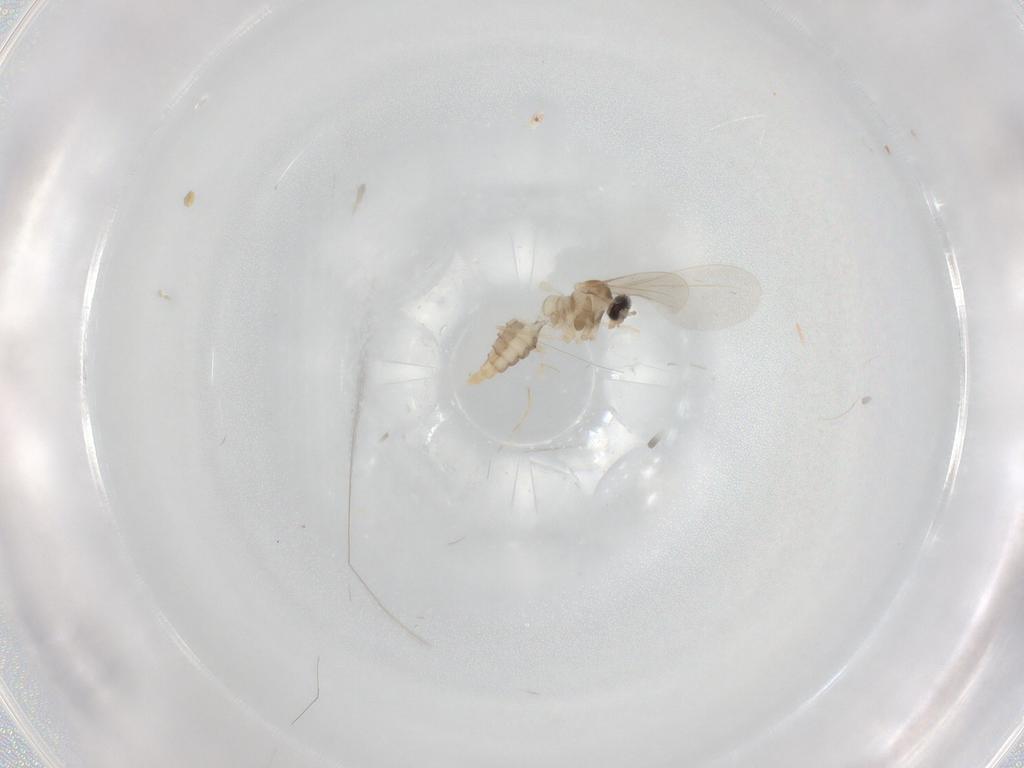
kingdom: Animalia
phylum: Arthropoda
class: Insecta
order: Diptera
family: Cecidomyiidae
